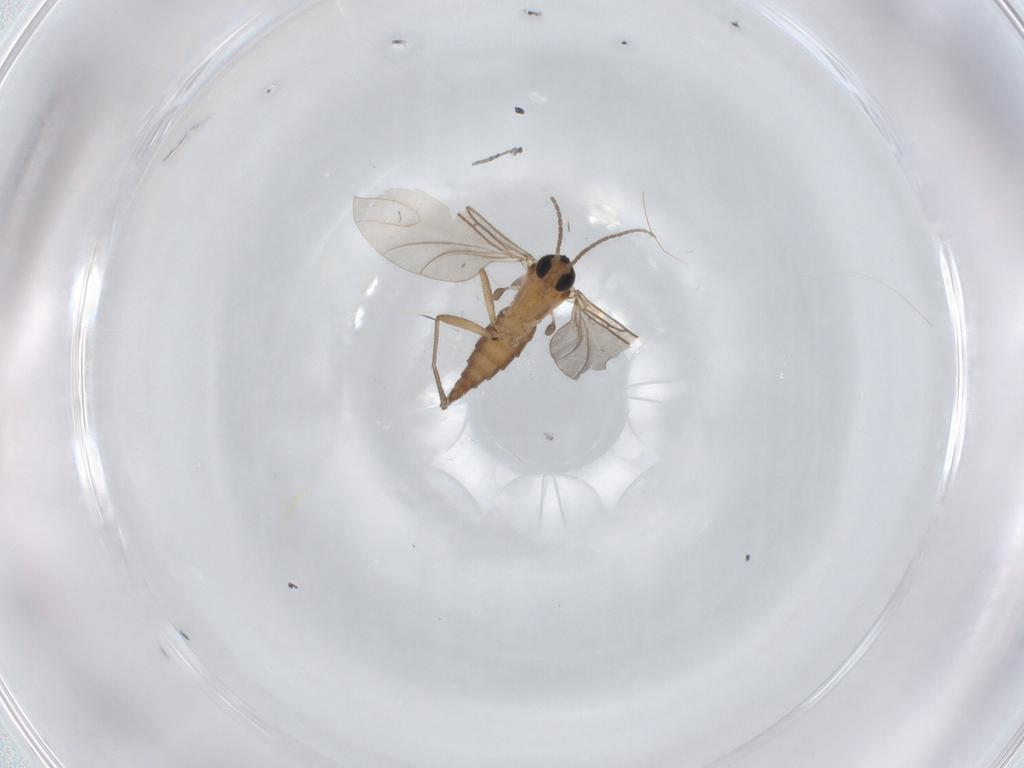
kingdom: Animalia
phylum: Arthropoda
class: Insecta
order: Diptera
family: Sciaridae
